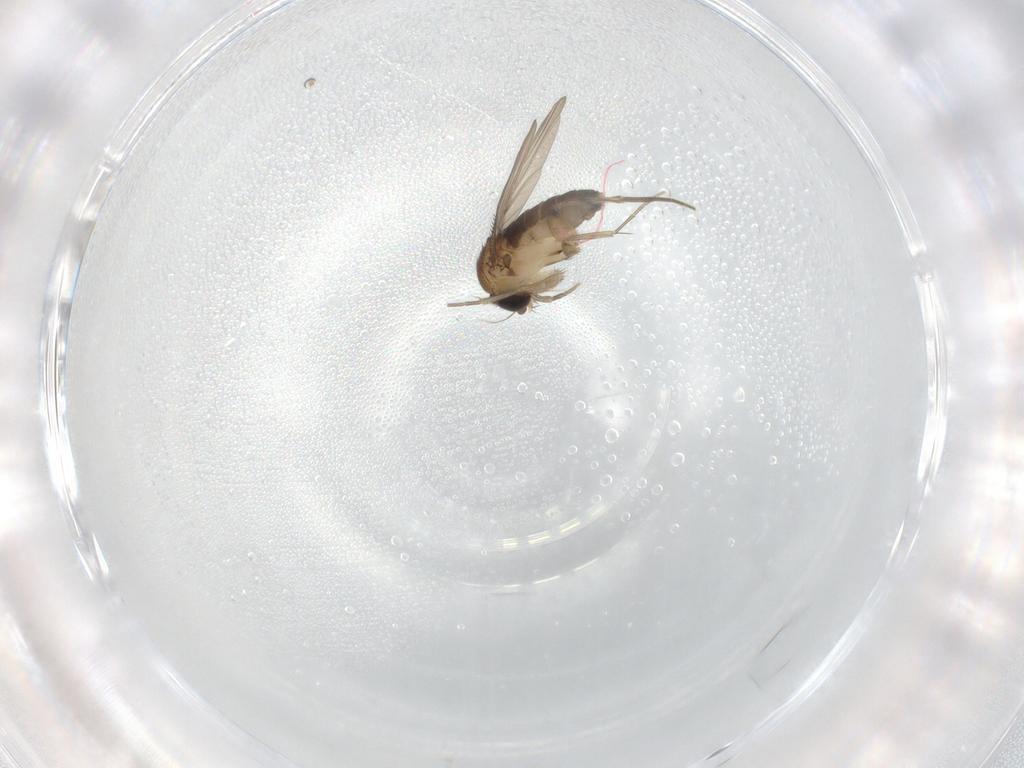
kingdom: Animalia
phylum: Arthropoda
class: Insecta
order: Diptera
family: Phoridae
